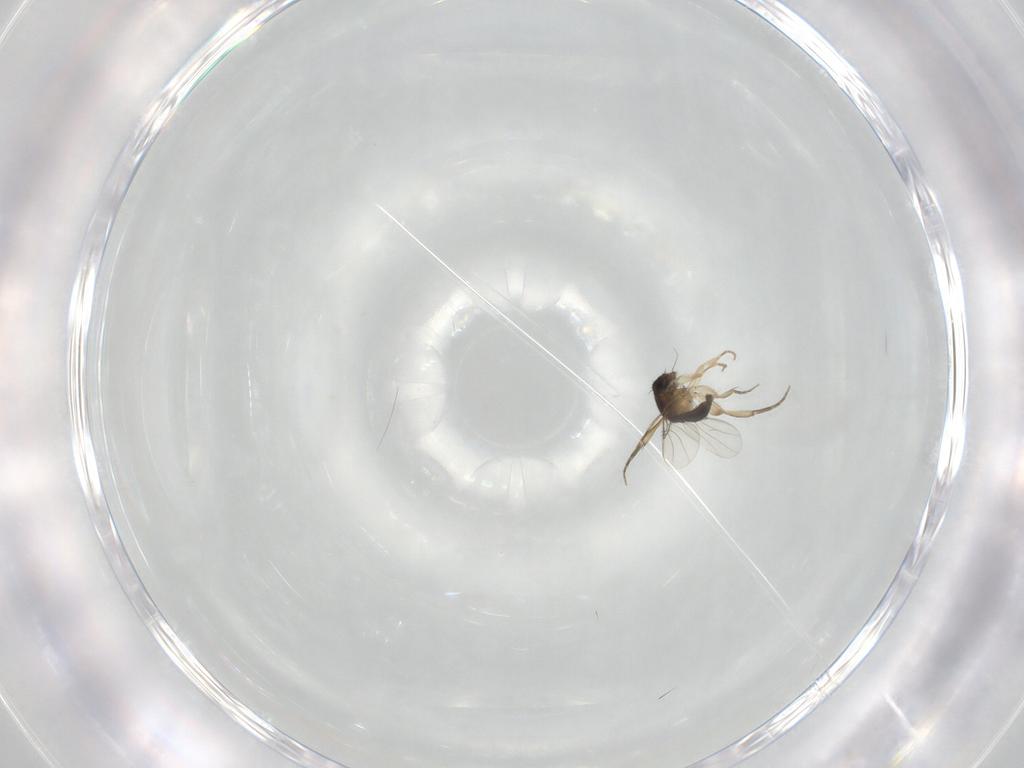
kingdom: Animalia
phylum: Arthropoda
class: Insecta
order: Diptera
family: Phoridae
